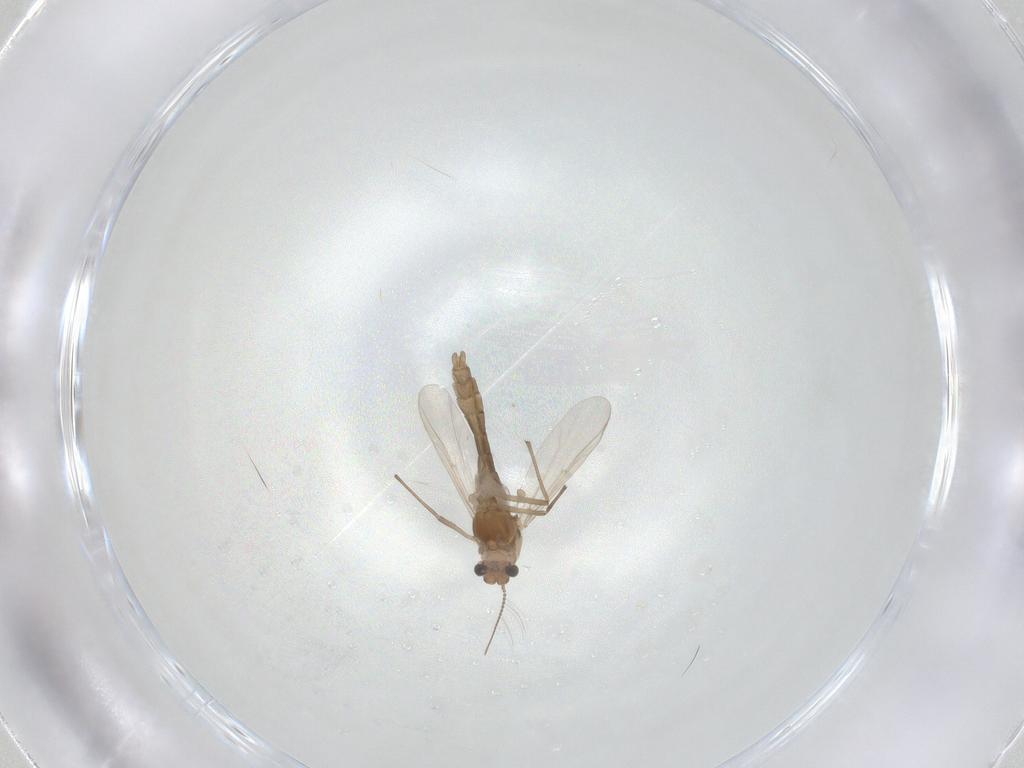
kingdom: Animalia
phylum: Arthropoda
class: Insecta
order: Diptera
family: Chironomidae
